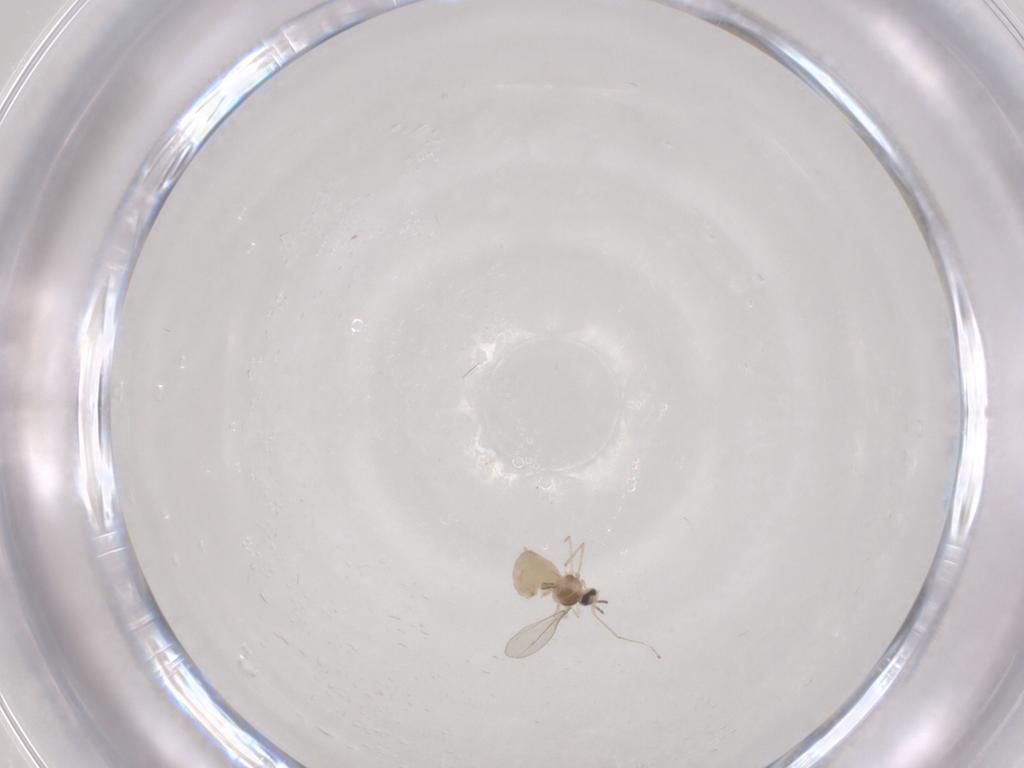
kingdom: Animalia
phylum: Arthropoda
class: Insecta
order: Diptera
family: Cecidomyiidae
